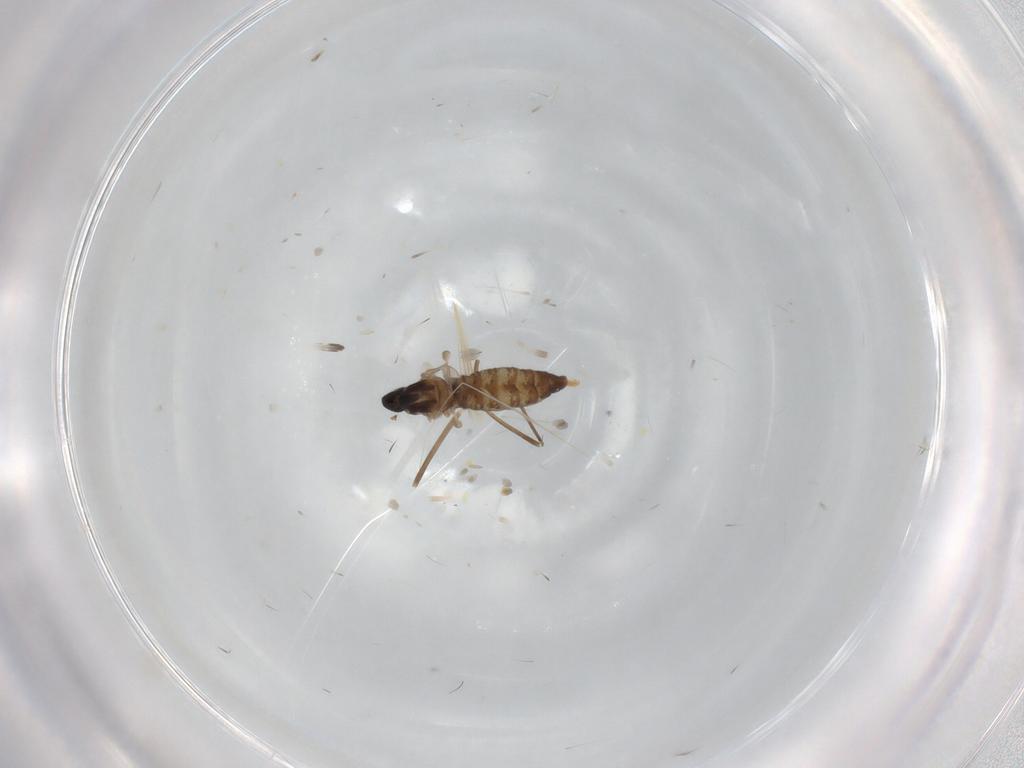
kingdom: Animalia
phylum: Arthropoda
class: Insecta
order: Diptera
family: Cecidomyiidae
